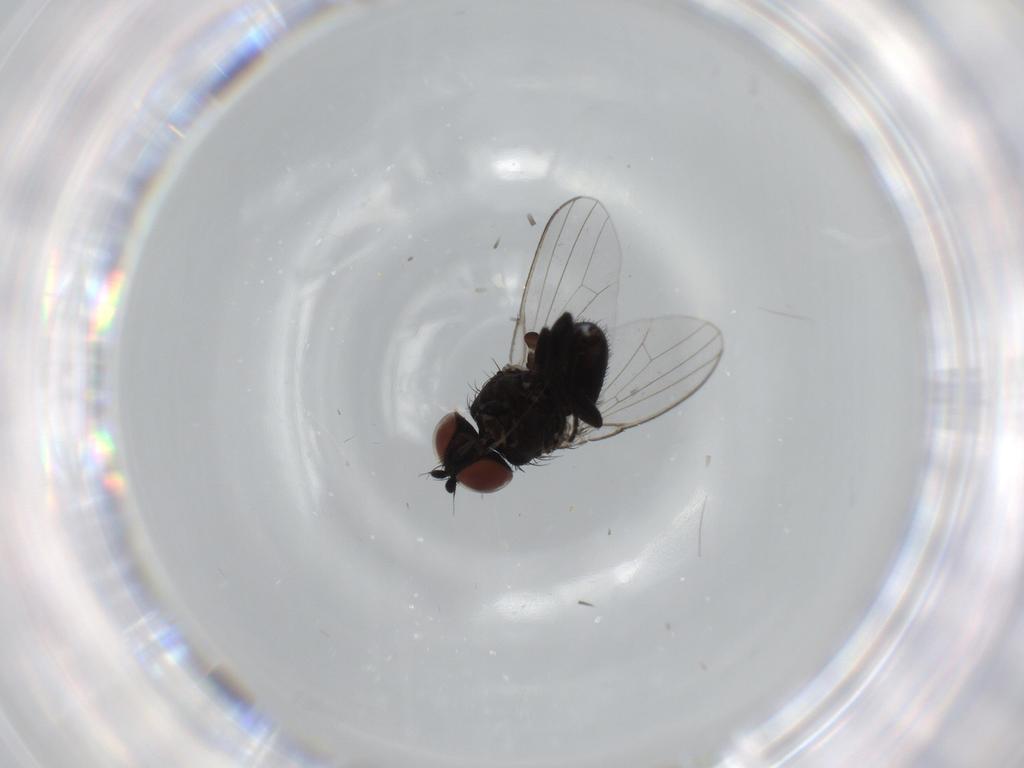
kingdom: Animalia
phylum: Arthropoda
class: Insecta
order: Diptera
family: Milichiidae
